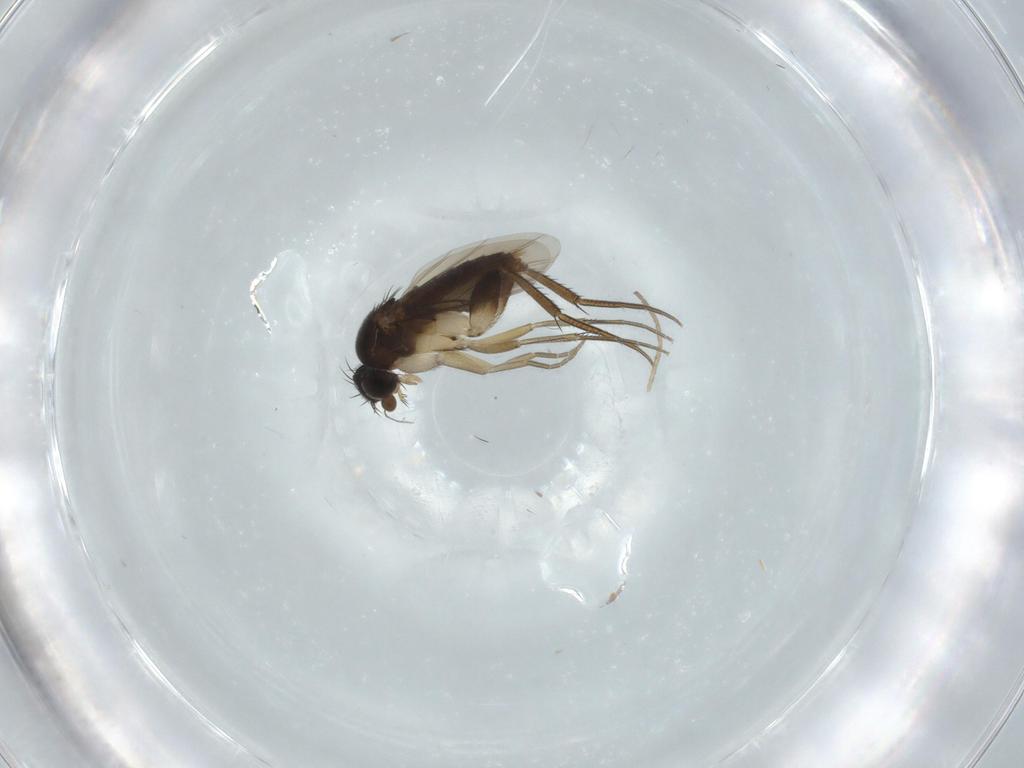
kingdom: Animalia
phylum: Arthropoda
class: Insecta
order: Diptera
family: Phoridae
